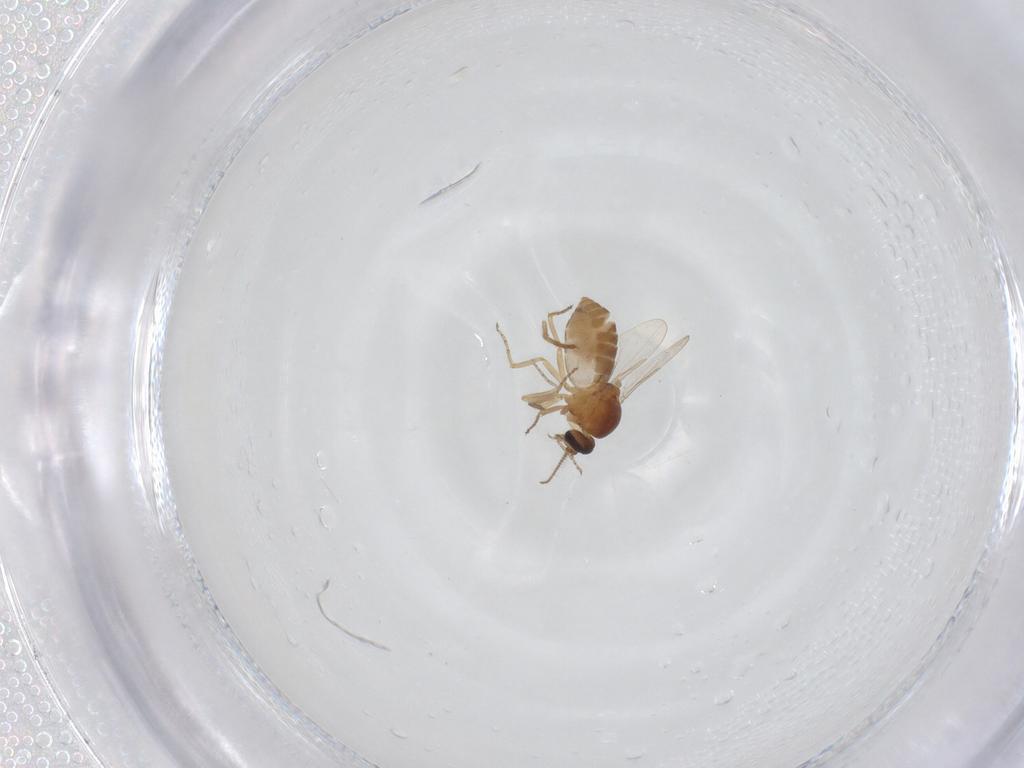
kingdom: Animalia
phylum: Arthropoda
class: Insecta
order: Diptera
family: Ceratopogonidae
